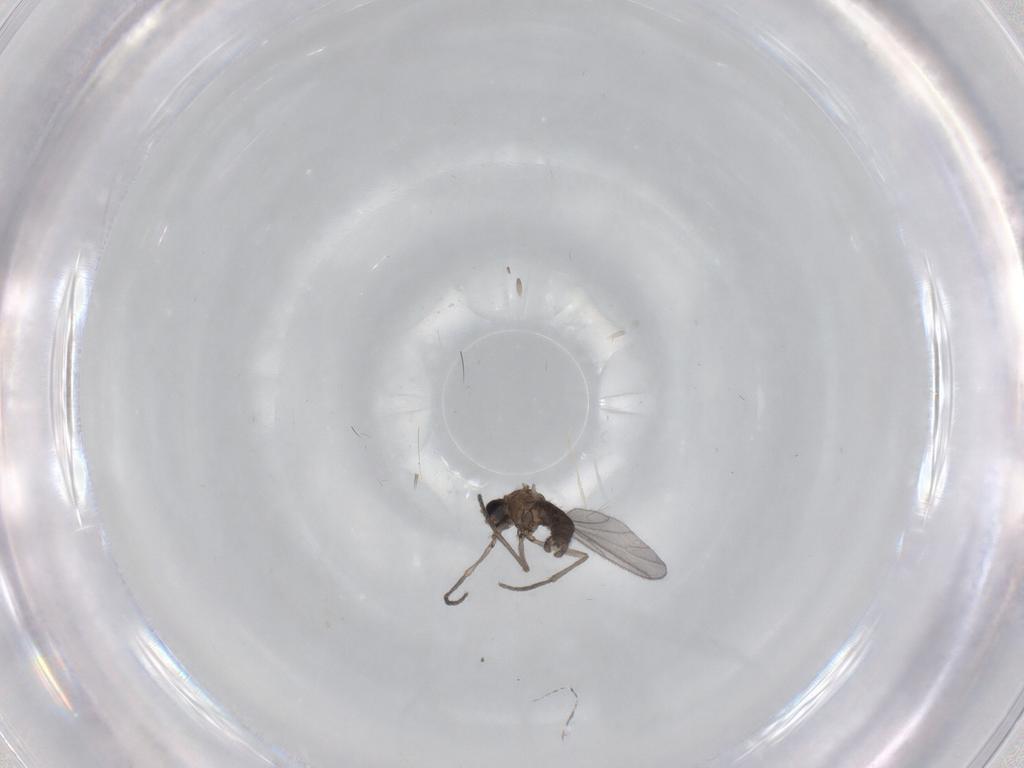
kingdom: Animalia
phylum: Arthropoda
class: Insecta
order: Diptera
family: Sciaridae
